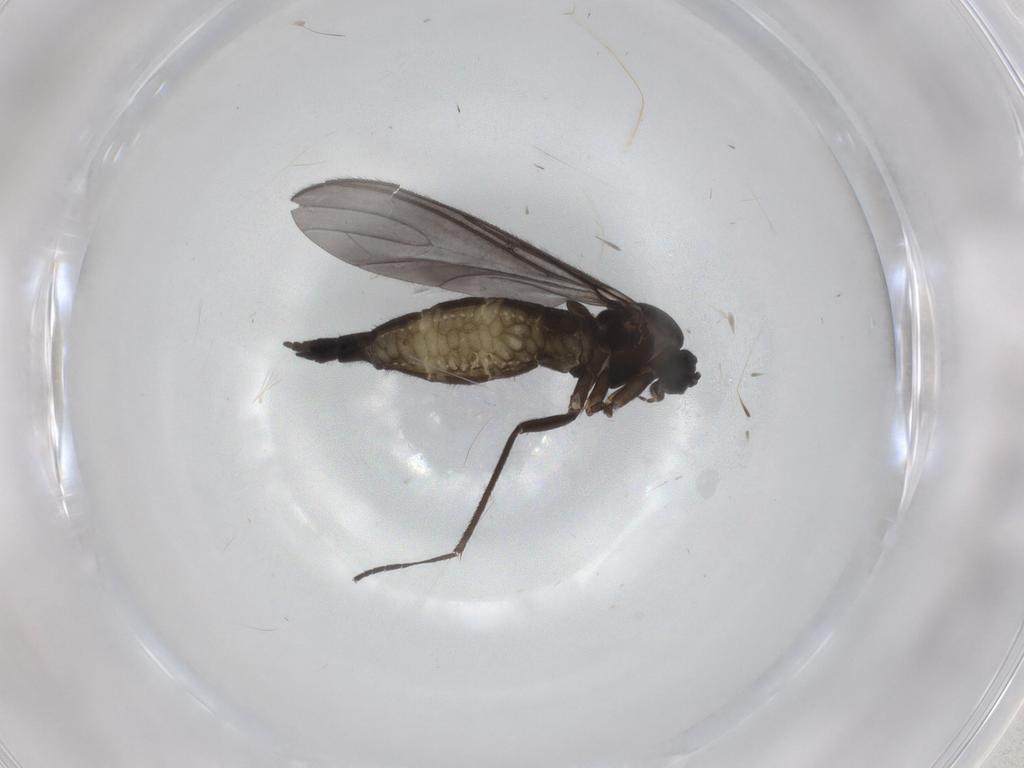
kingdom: Animalia
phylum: Arthropoda
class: Insecta
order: Diptera
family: Sciaridae
